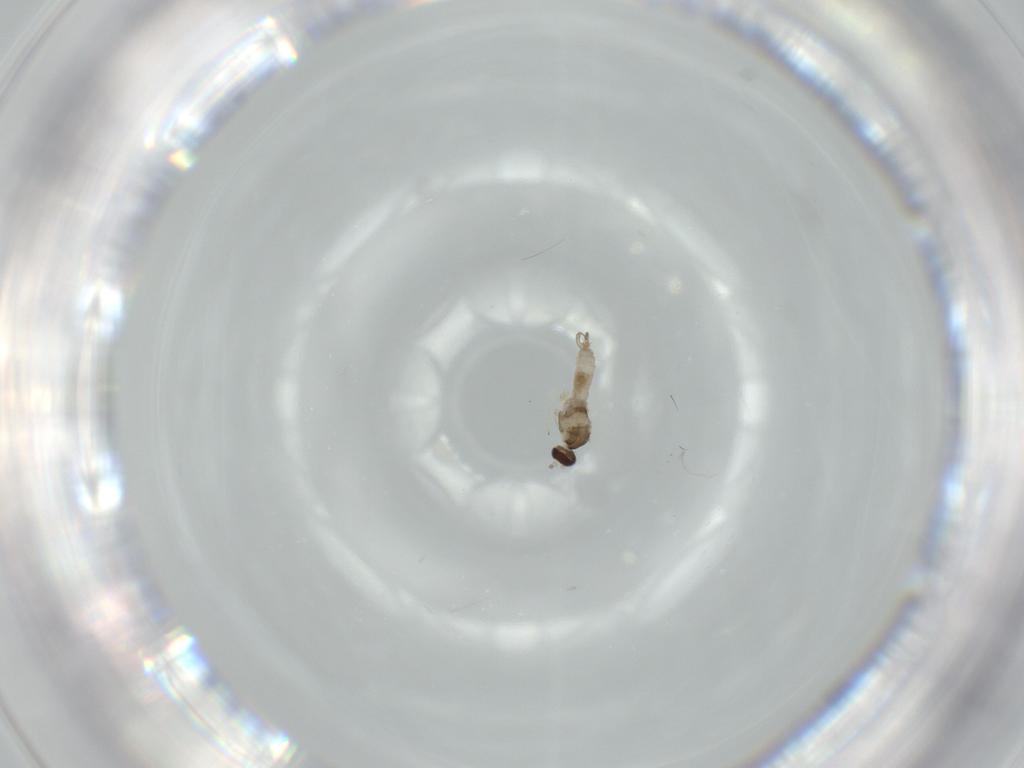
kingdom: Animalia
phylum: Arthropoda
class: Insecta
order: Diptera
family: Cecidomyiidae
